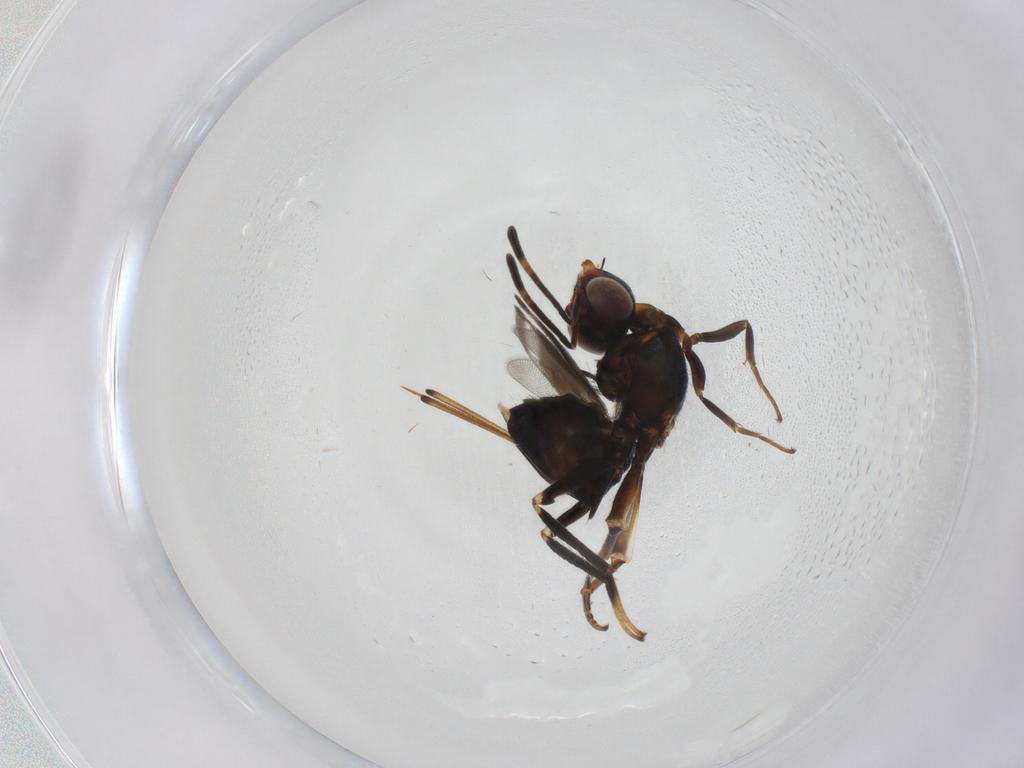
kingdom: Animalia
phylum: Arthropoda
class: Insecta
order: Hymenoptera
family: Eupelmidae
